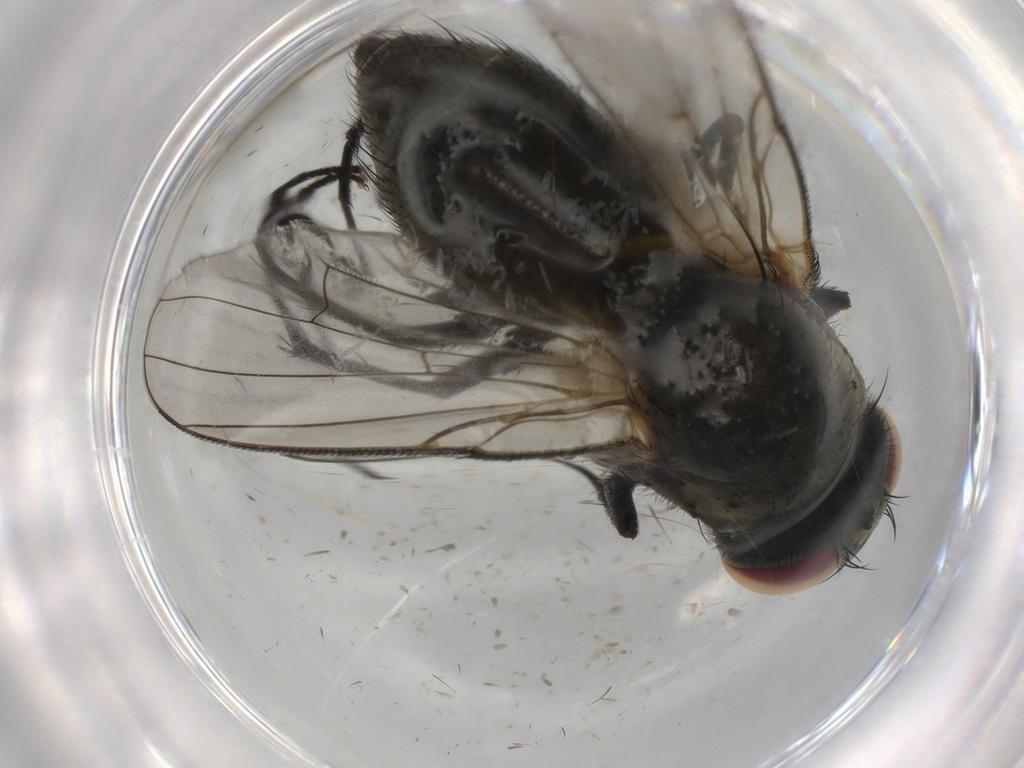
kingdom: Animalia
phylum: Arthropoda
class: Insecta
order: Diptera
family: Muscidae
